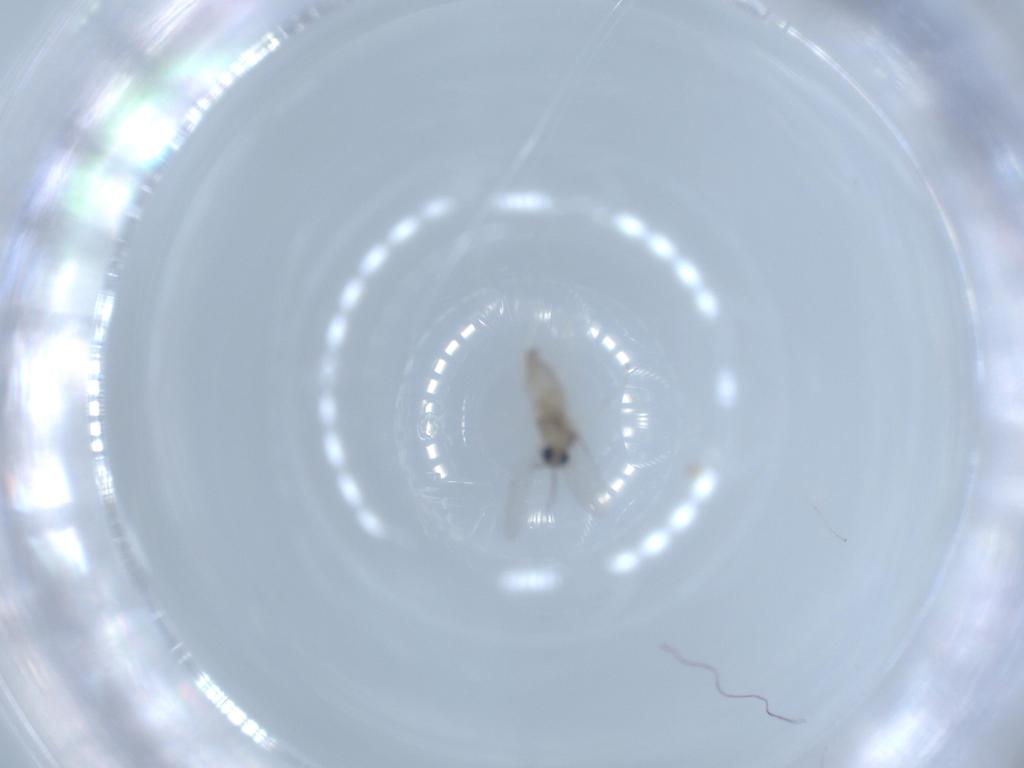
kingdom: Animalia
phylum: Arthropoda
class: Insecta
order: Diptera
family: Cecidomyiidae
